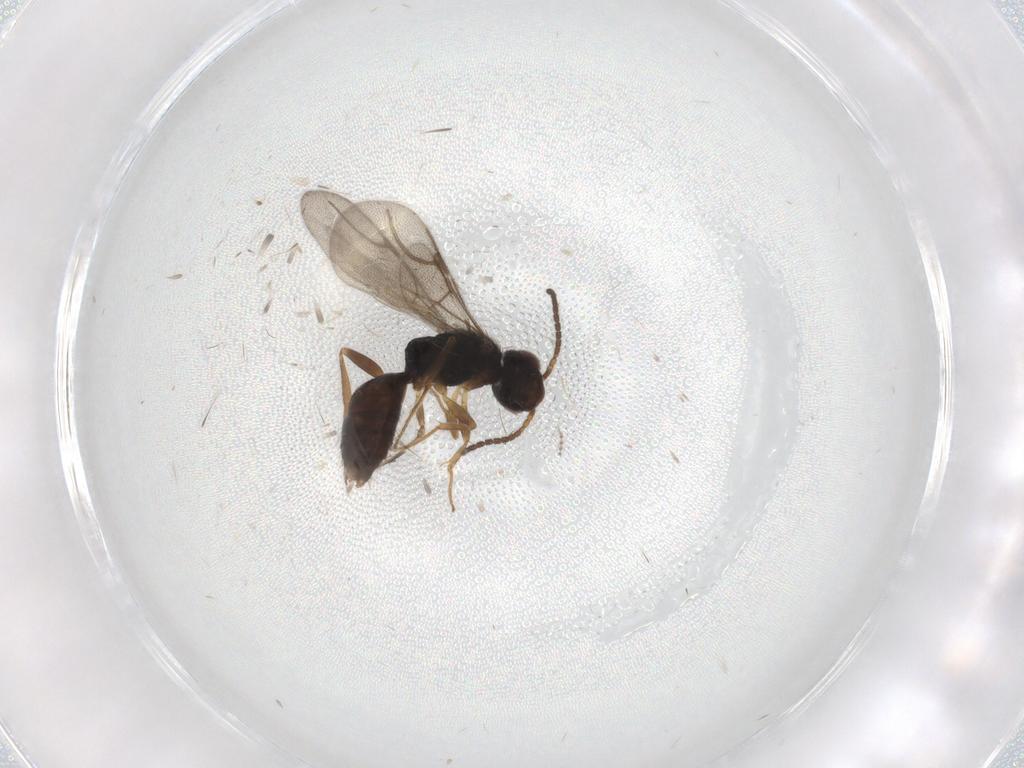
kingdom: Animalia
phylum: Arthropoda
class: Insecta
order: Hymenoptera
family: Bethylidae
